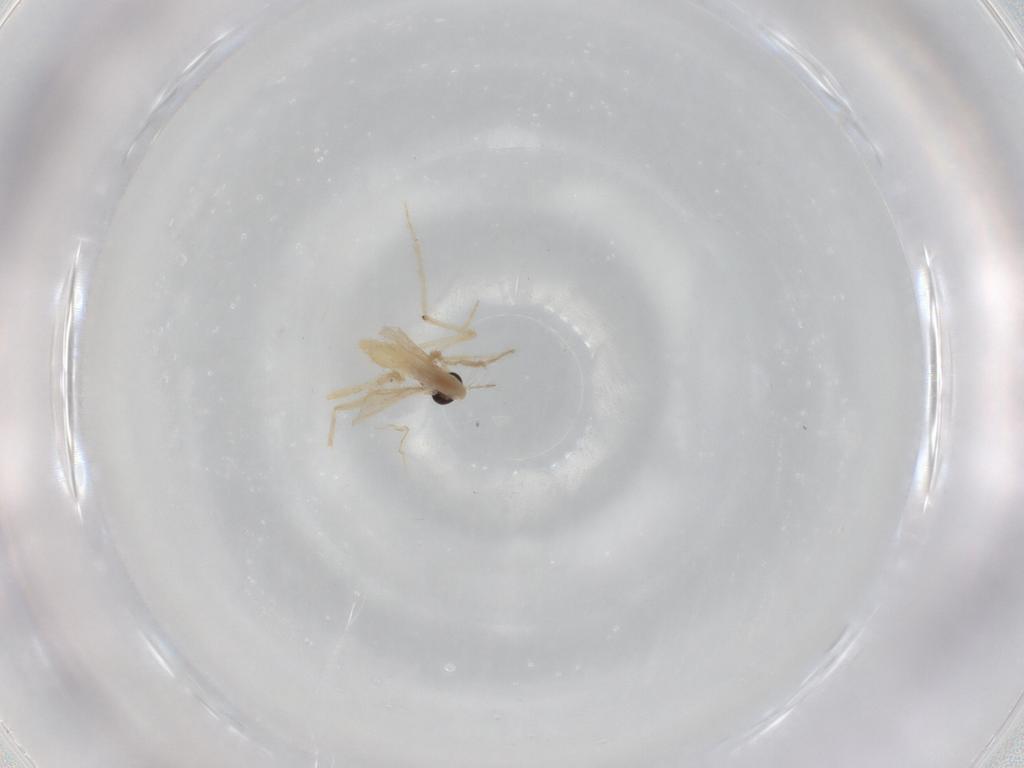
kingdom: Animalia
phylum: Arthropoda
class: Insecta
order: Diptera
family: Chironomidae
